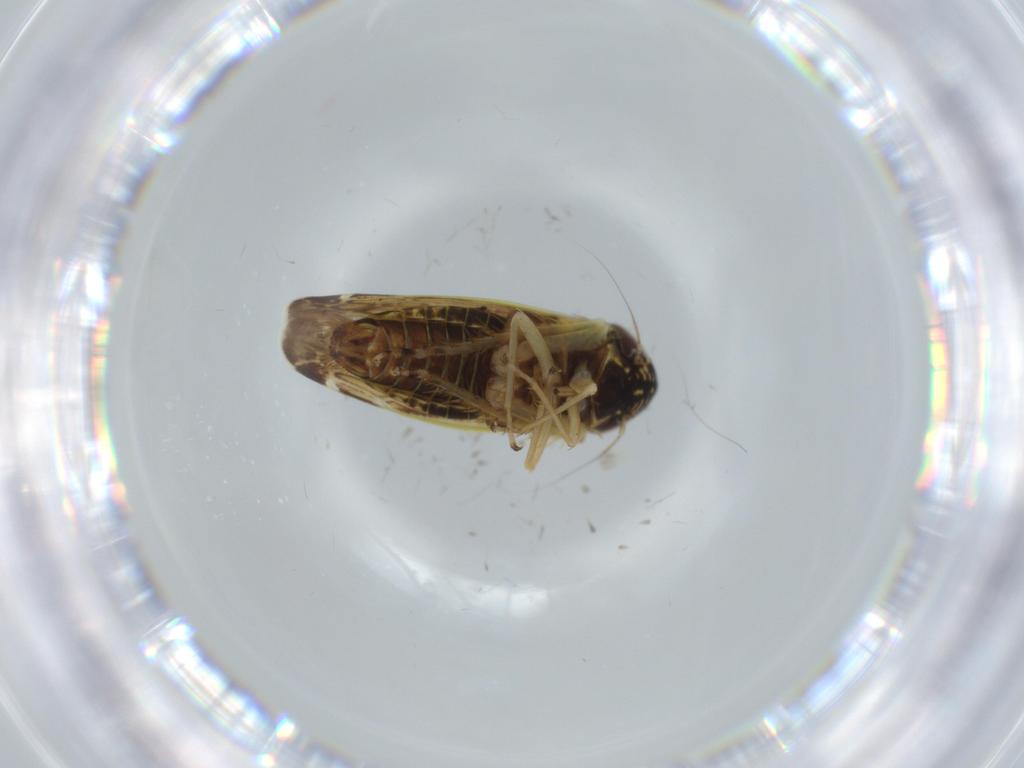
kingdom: Animalia
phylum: Arthropoda
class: Insecta
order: Hemiptera
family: Cicadellidae
